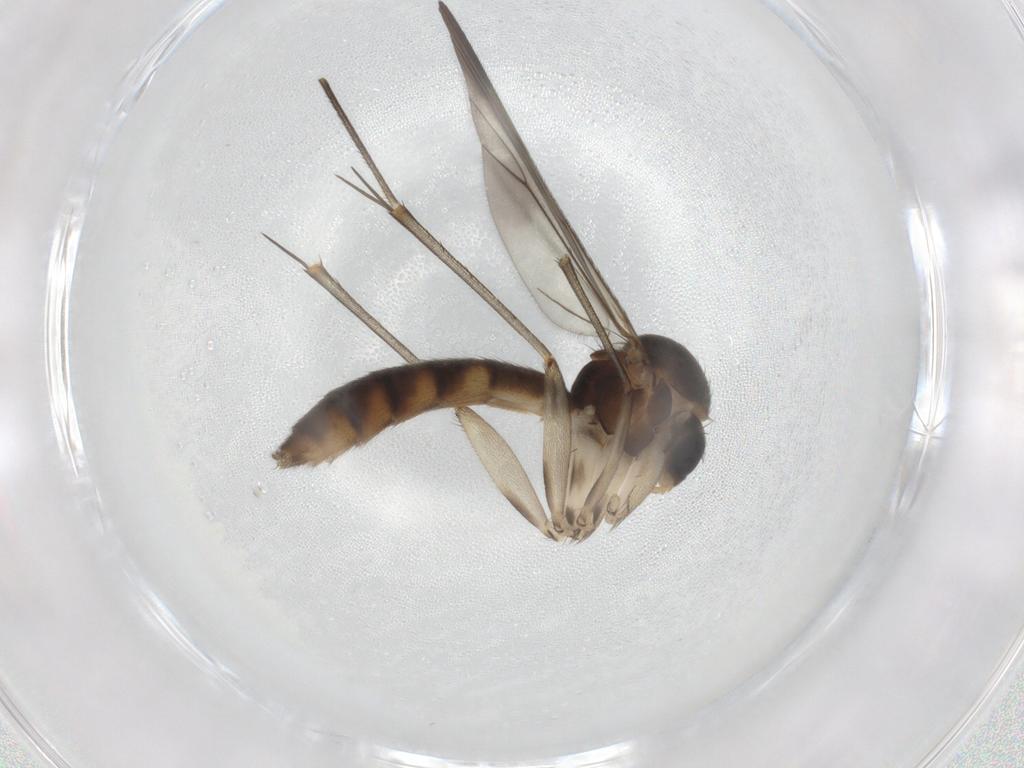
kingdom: Animalia
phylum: Arthropoda
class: Insecta
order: Diptera
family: Mycetophilidae
